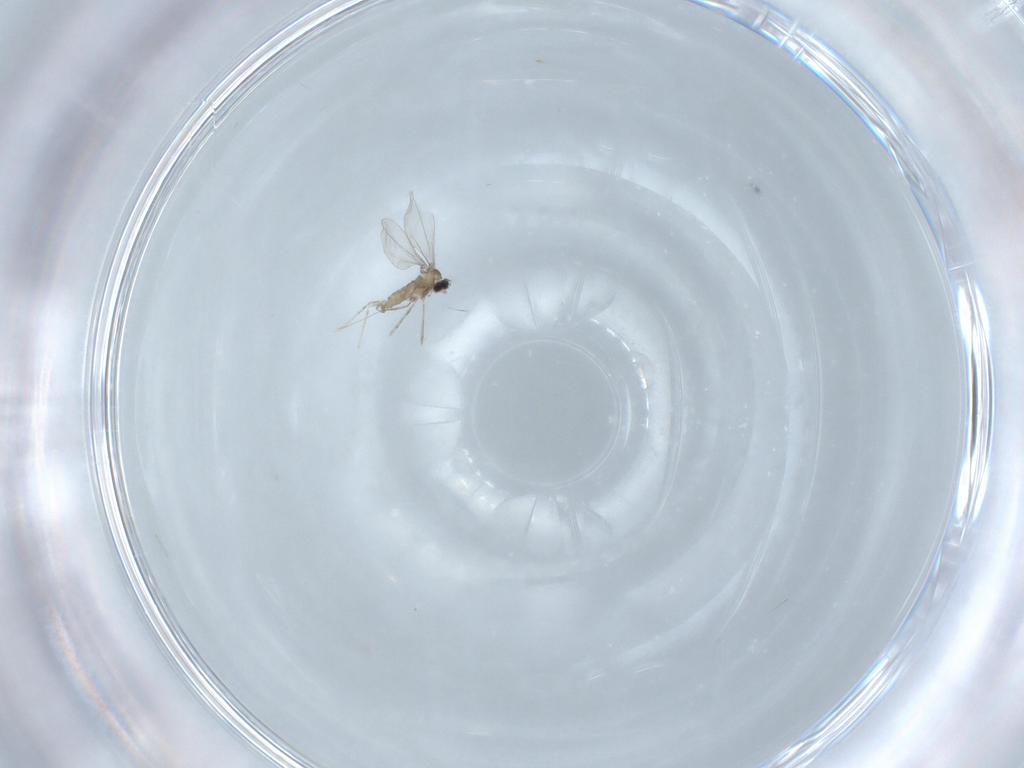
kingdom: Animalia
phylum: Arthropoda
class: Insecta
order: Diptera
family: Cecidomyiidae
